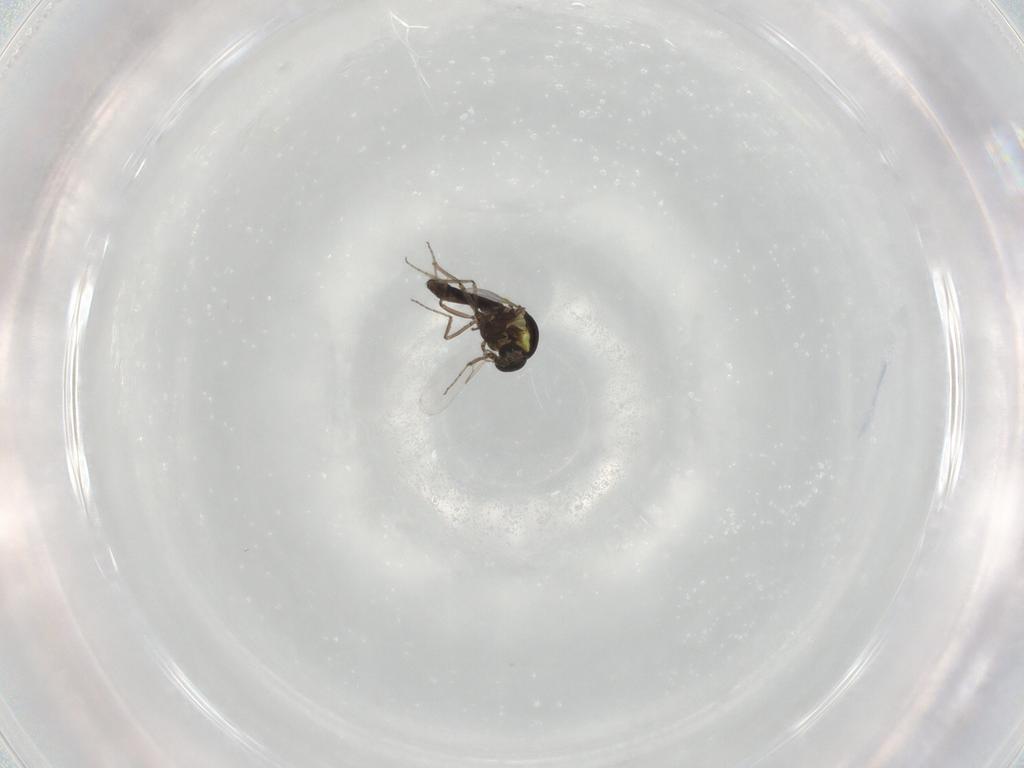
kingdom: Animalia
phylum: Arthropoda
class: Insecta
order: Diptera
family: Ceratopogonidae
